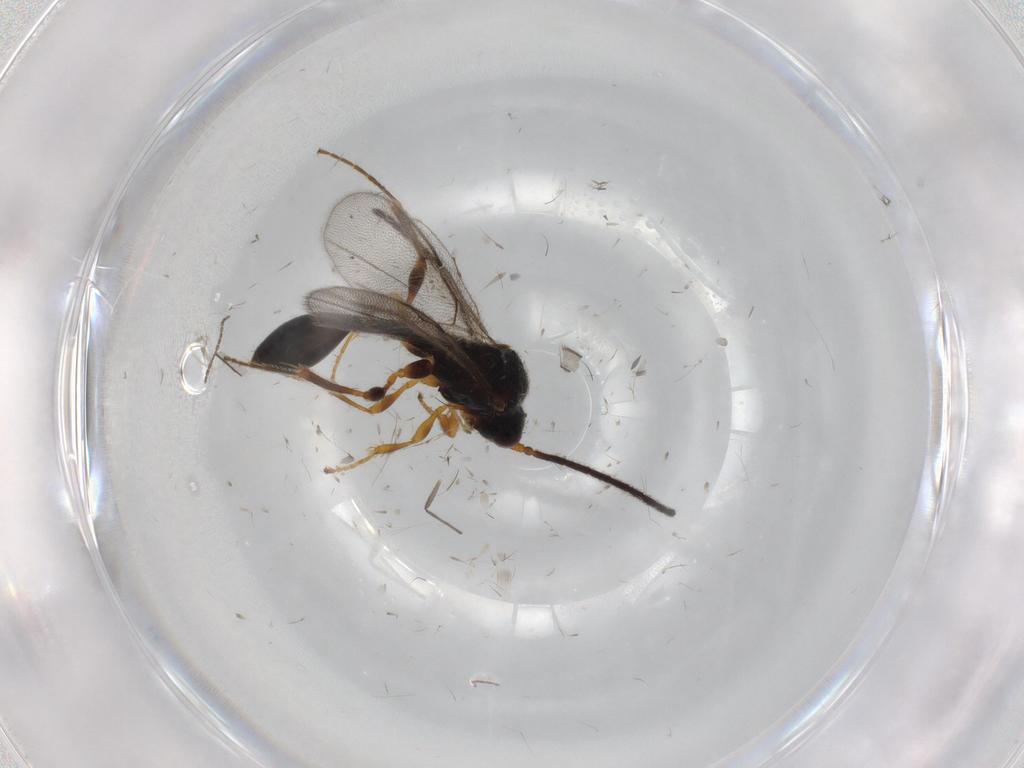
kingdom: Animalia
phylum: Arthropoda
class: Insecta
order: Hymenoptera
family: Diapriidae
